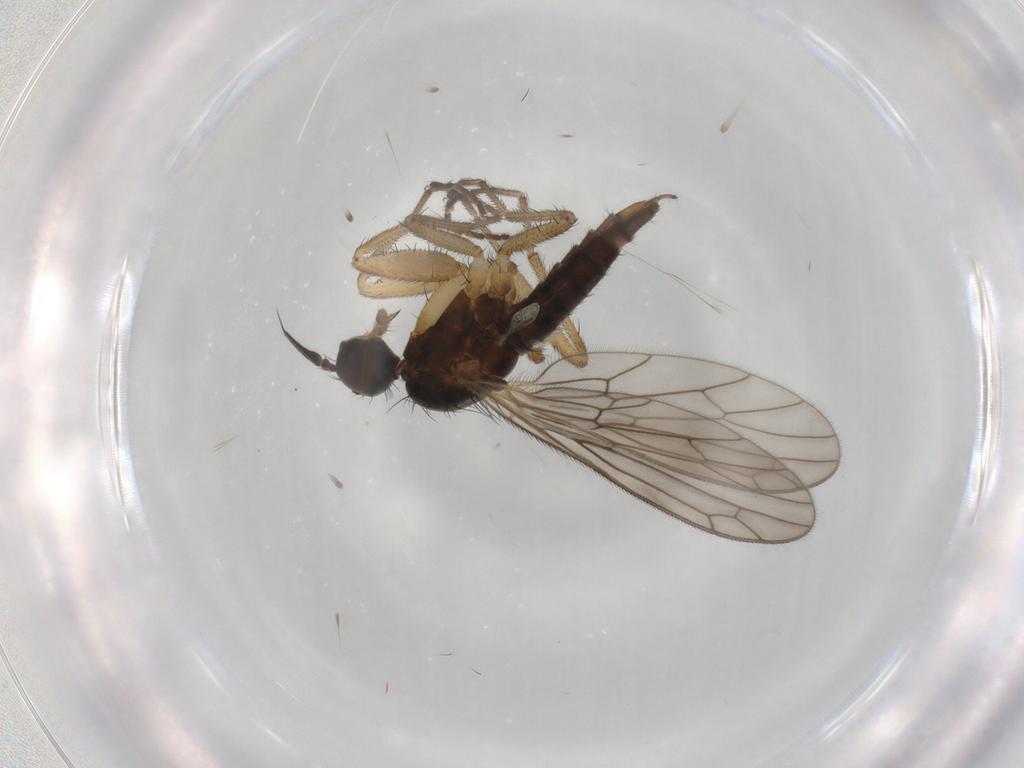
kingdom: Animalia
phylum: Arthropoda
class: Insecta
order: Diptera
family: Empididae
